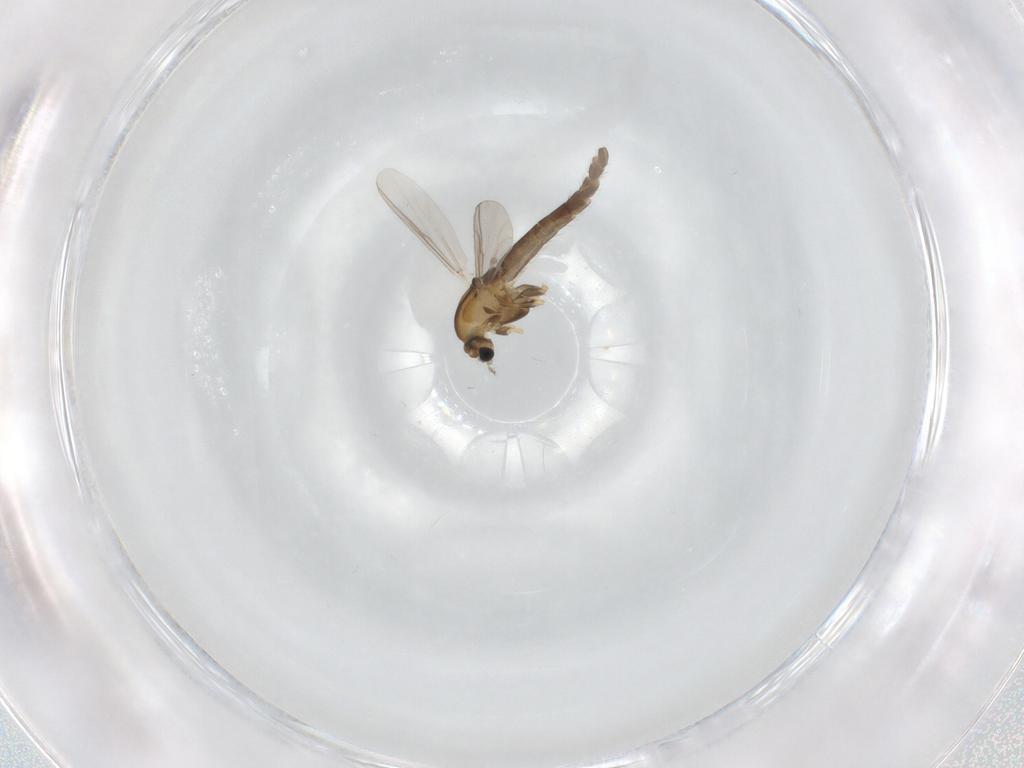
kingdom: Animalia
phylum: Arthropoda
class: Insecta
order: Diptera
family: Chironomidae
